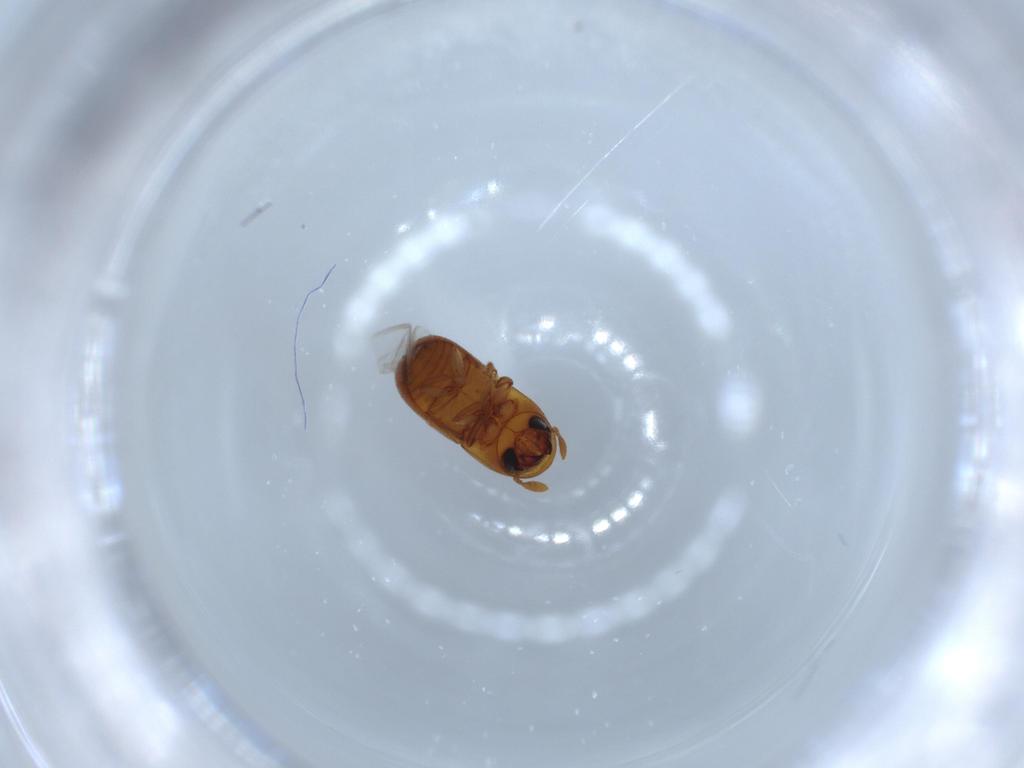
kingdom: Animalia
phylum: Arthropoda
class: Insecta
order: Coleoptera
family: Curculionidae
